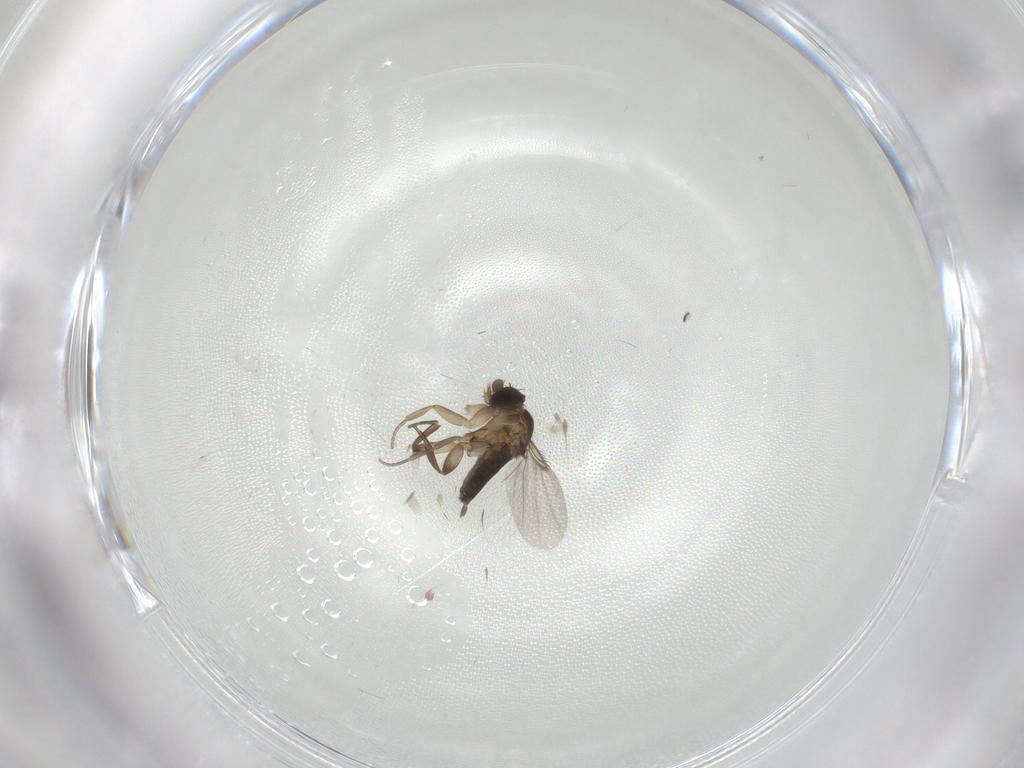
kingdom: Animalia
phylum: Arthropoda
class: Insecta
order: Diptera
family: Phoridae
